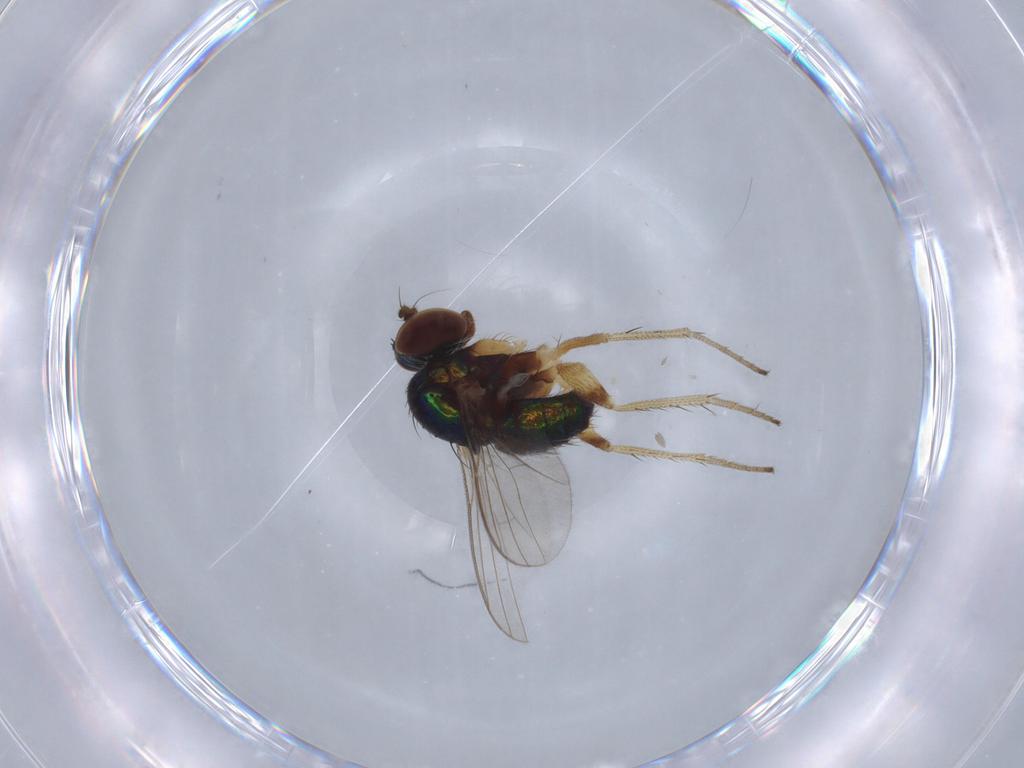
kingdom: Animalia
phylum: Arthropoda
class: Insecta
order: Diptera
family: Sphaeroceridae
